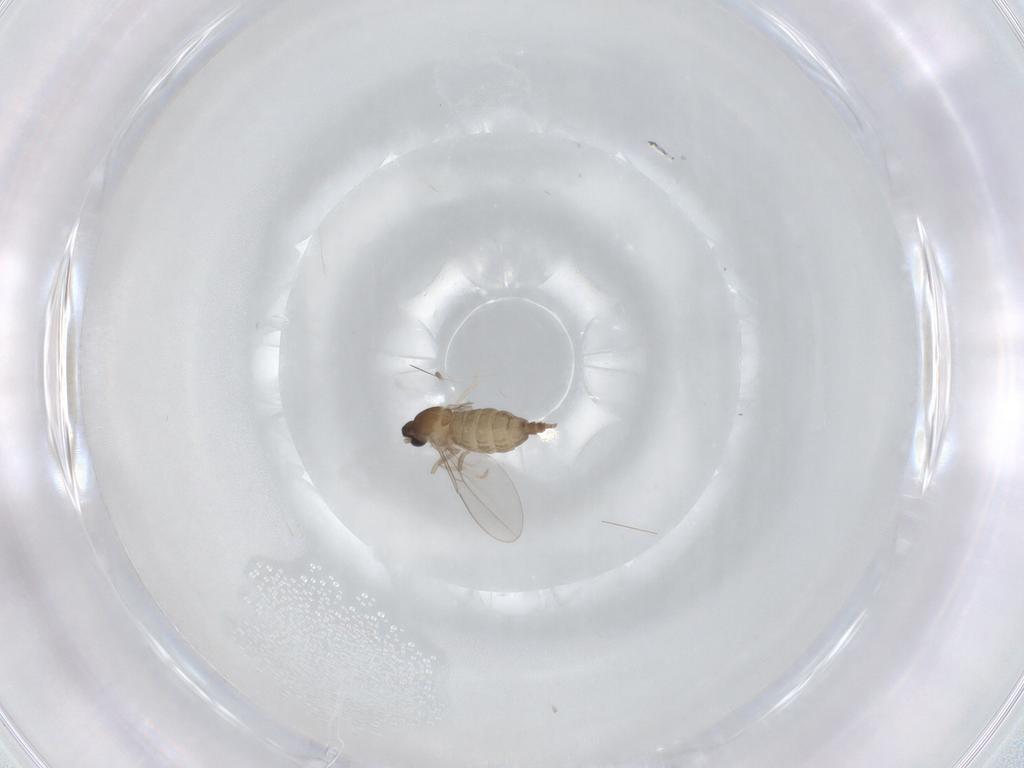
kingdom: Animalia
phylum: Arthropoda
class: Insecta
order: Diptera
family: Cecidomyiidae
